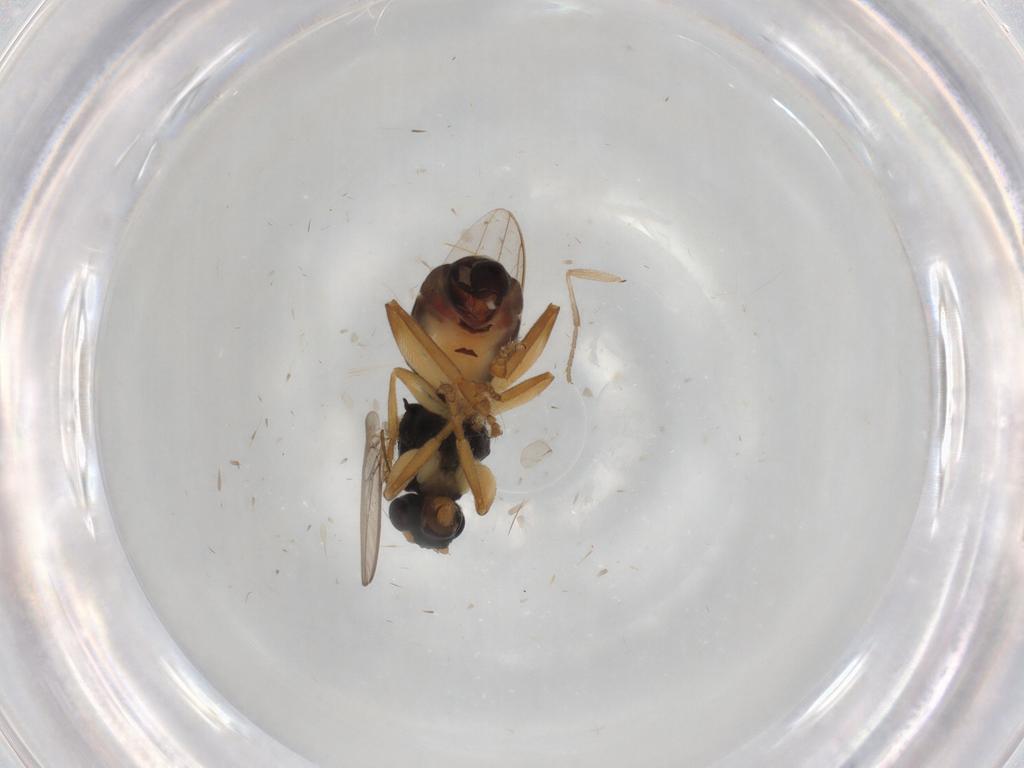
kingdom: Animalia
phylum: Arthropoda
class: Insecta
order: Diptera
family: Sphaeroceridae
